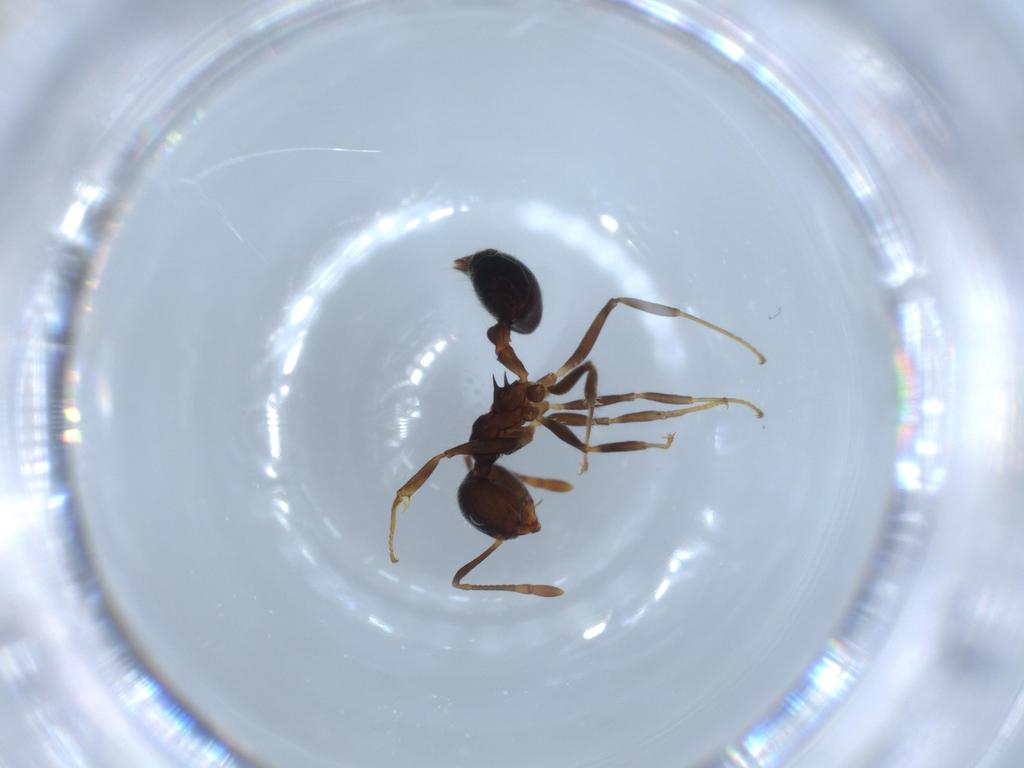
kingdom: Animalia
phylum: Arthropoda
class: Insecta
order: Hymenoptera
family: Formicidae
